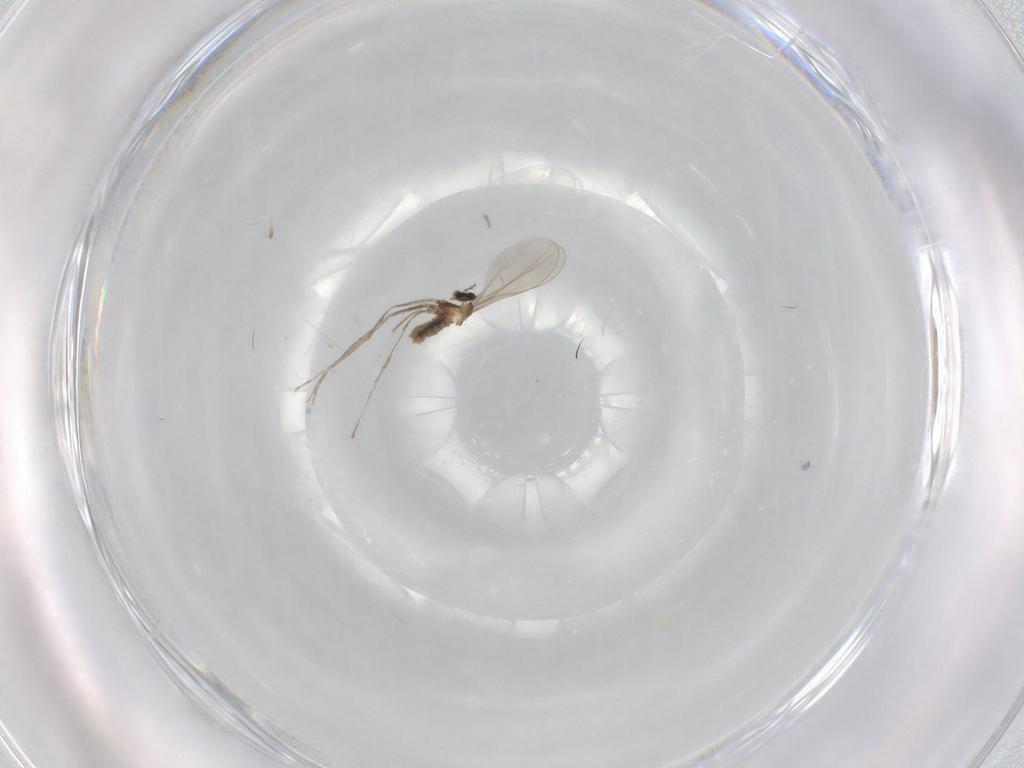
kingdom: Animalia
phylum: Arthropoda
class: Insecta
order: Diptera
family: Cecidomyiidae
